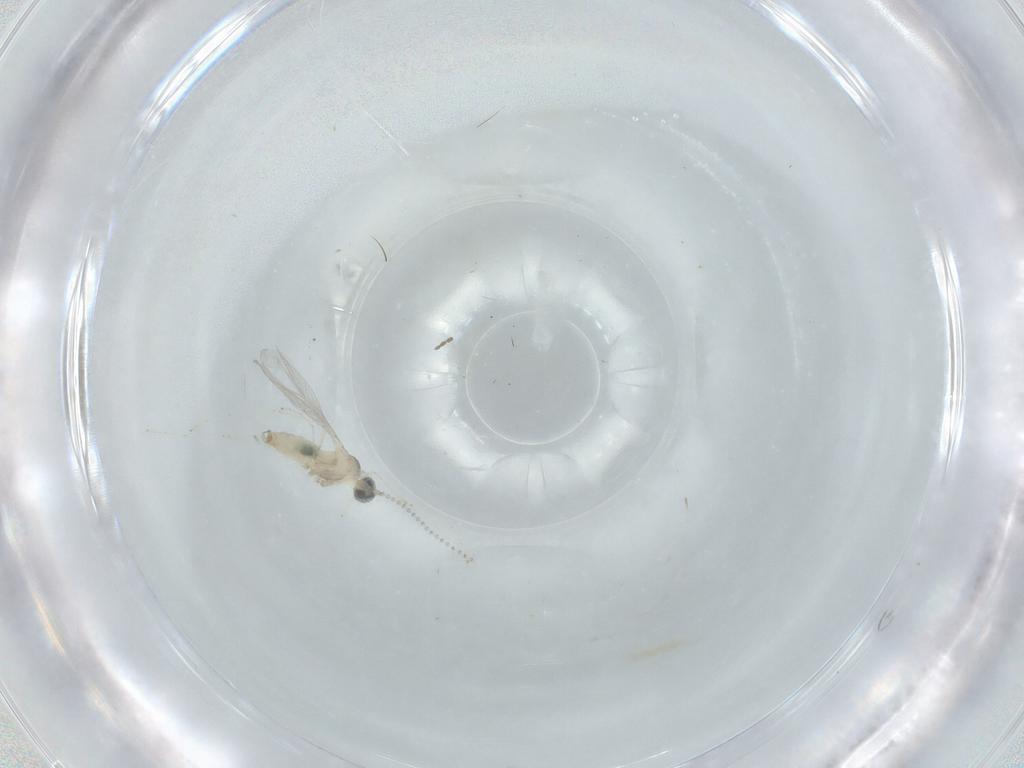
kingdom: Animalia
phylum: Arthropoda
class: Insecta
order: Diptera
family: Cecidomyiidae
